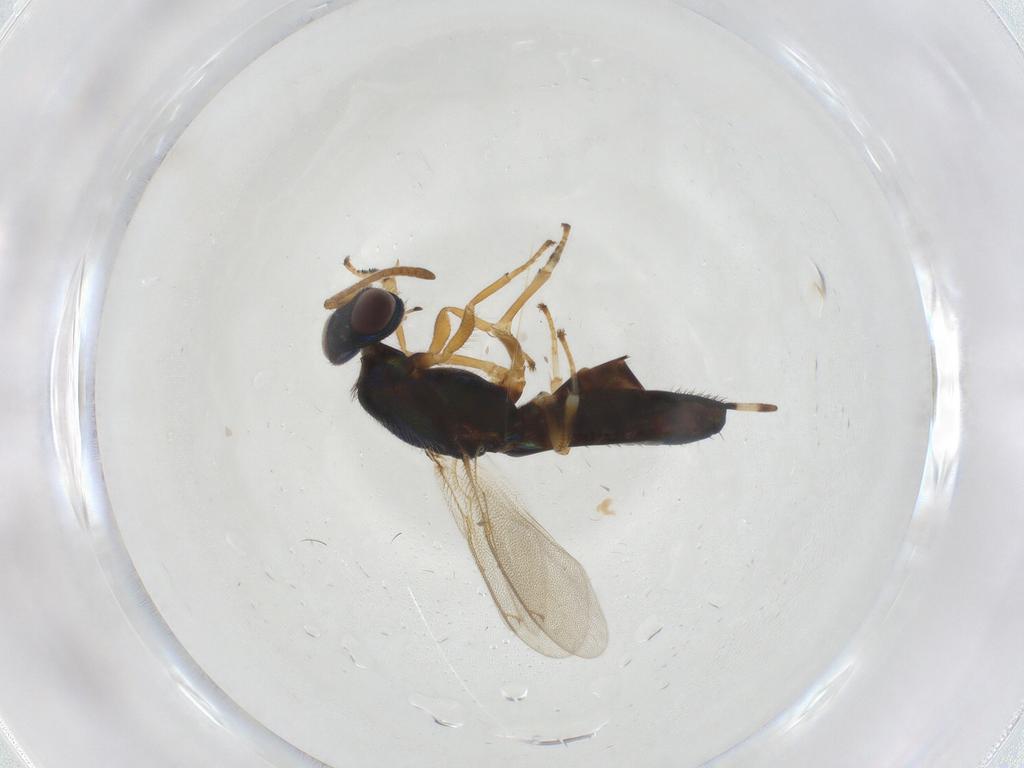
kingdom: Animalia
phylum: Arthropoda
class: Insecta
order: Hymenoptera
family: Eupelmidae
